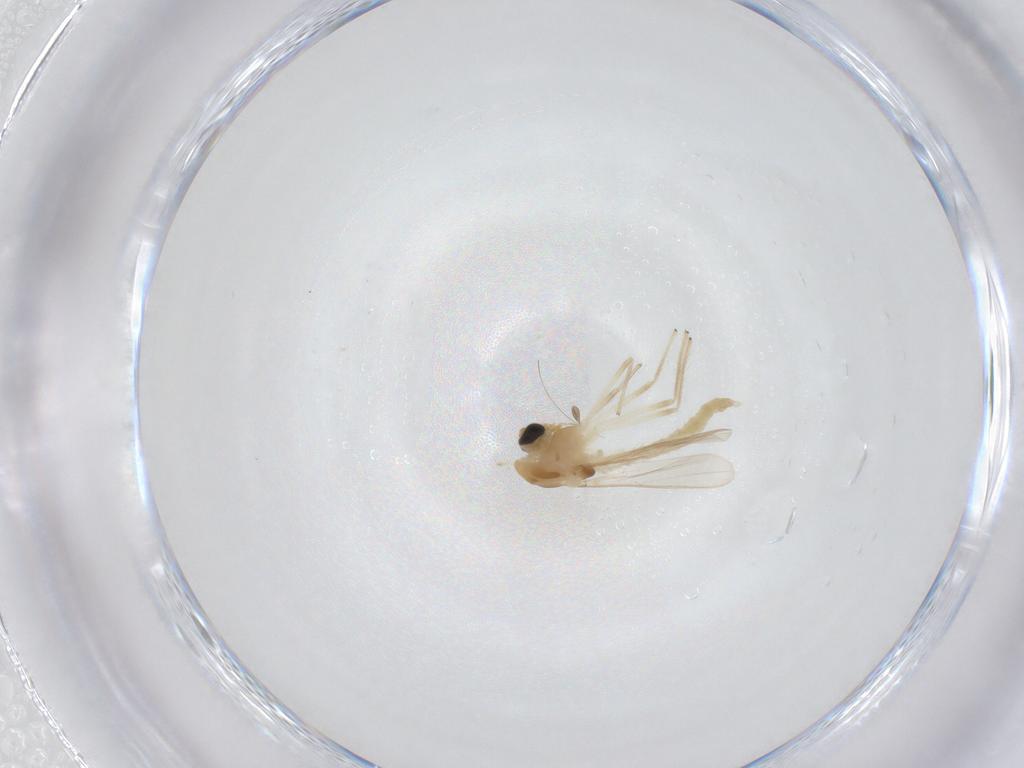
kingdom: Animalia
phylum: Arthropoda
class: Insecta
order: Diptera
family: Chironomidae
